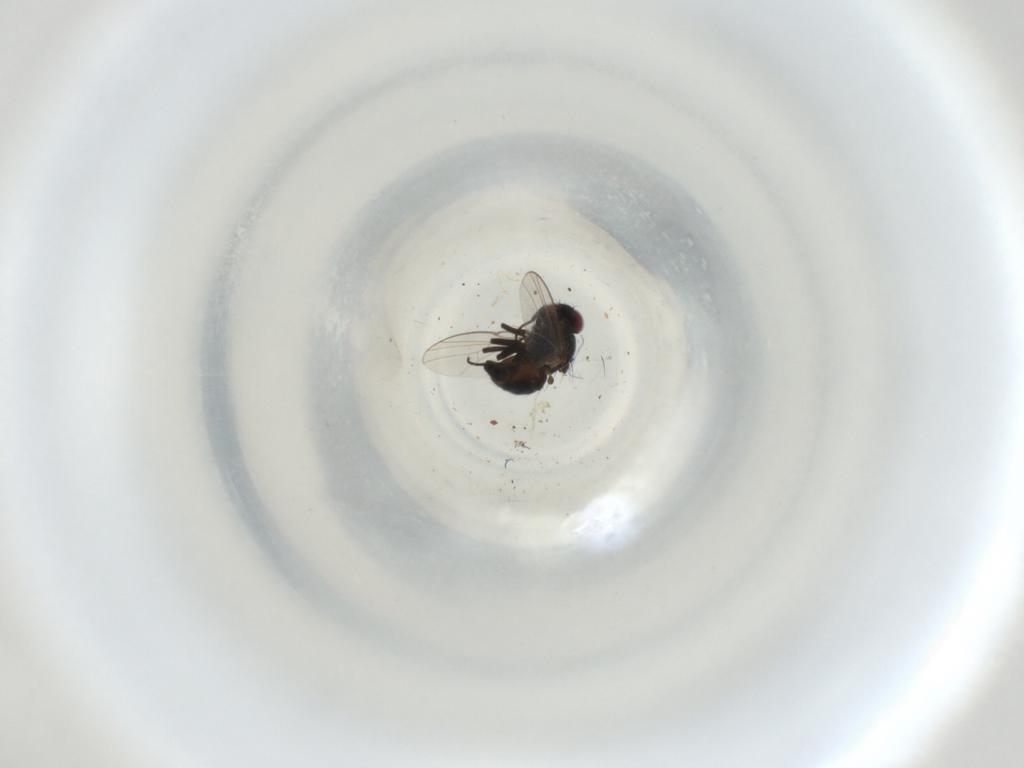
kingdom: Animalia
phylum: Arthropoda
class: Insecta
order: Diptera
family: Agromyzidae
